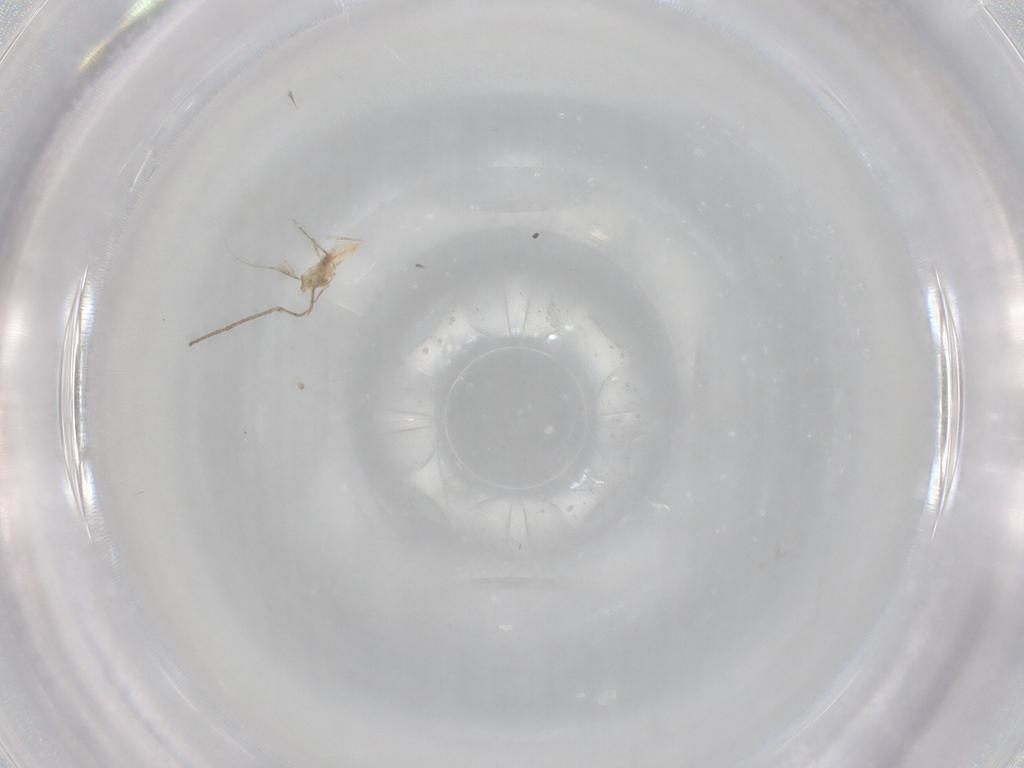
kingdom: Animalia
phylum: Arthropoda
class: Insecta
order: Diptera
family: Cecidomyiidae
